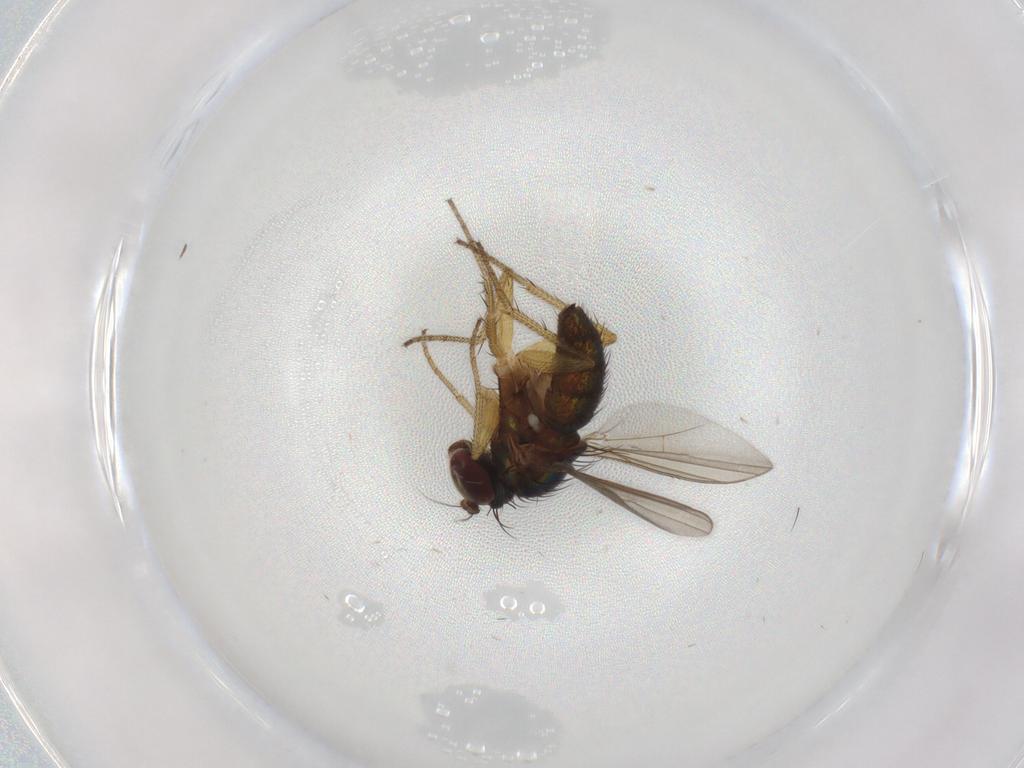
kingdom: Animalia
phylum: Arthropoda
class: Insecta
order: Diptera
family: Dolichopodidae
